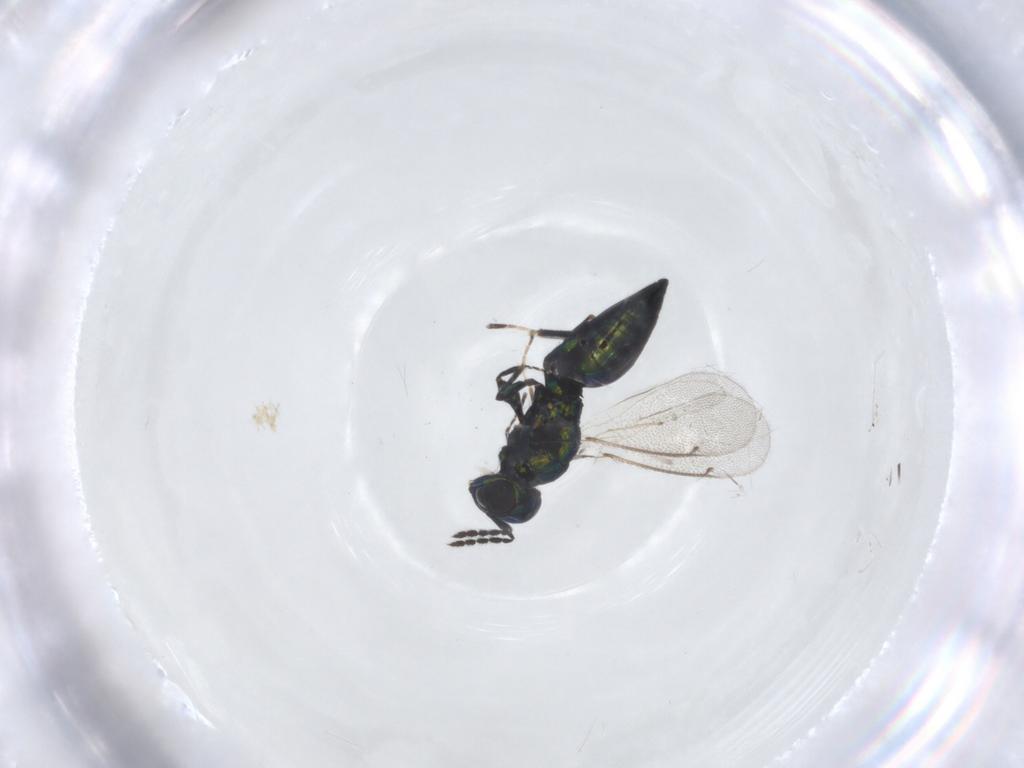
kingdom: Animalia
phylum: Arthropoda
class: Insecta
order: Hymenoptera
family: Eulophidae
